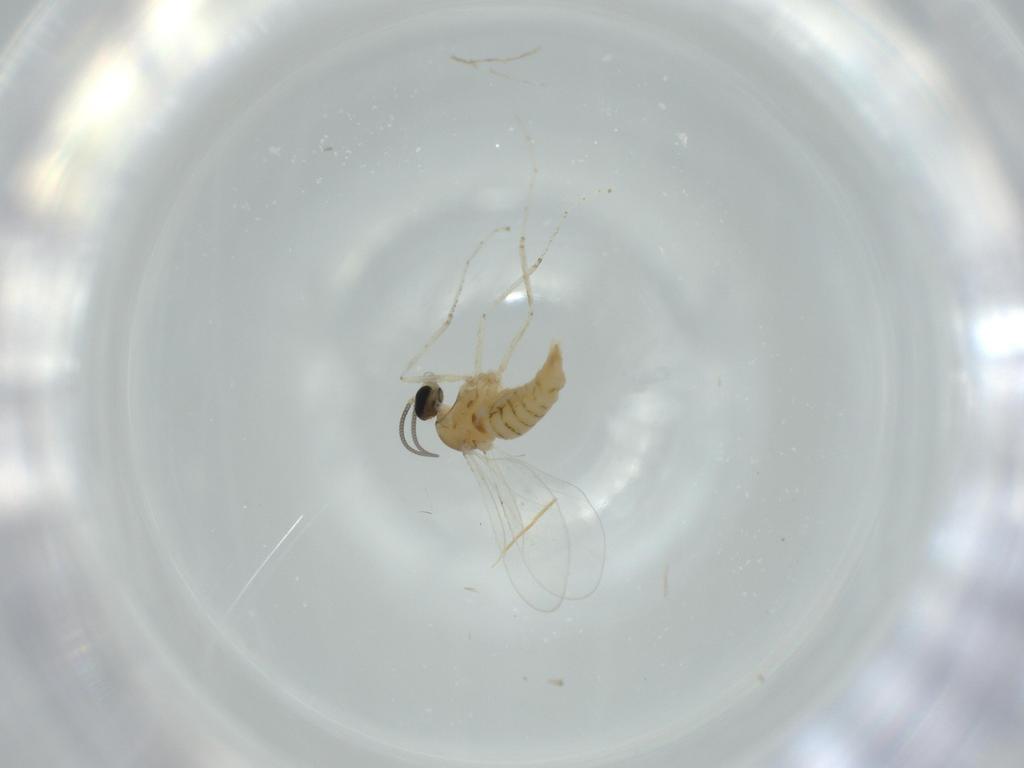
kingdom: Animalia
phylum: Arthropoda
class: Insecta
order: Diptera
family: Cecidomyiidae
